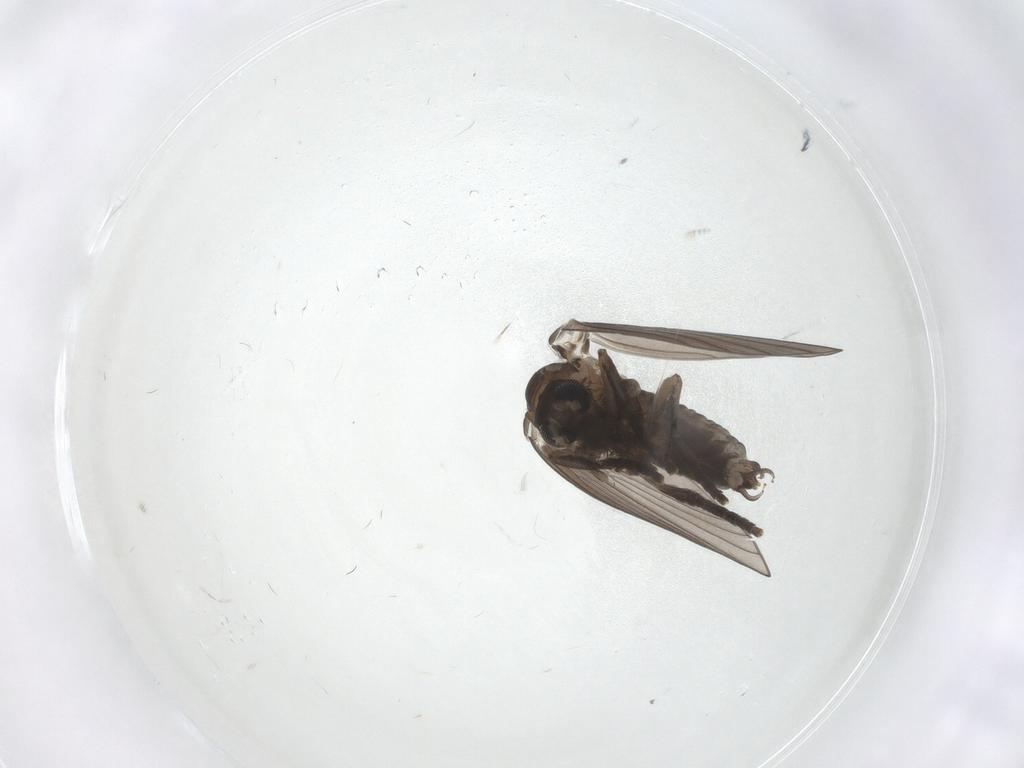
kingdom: Animalia
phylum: Arthropoda
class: Insecta
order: Diptera
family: Psychodidae
